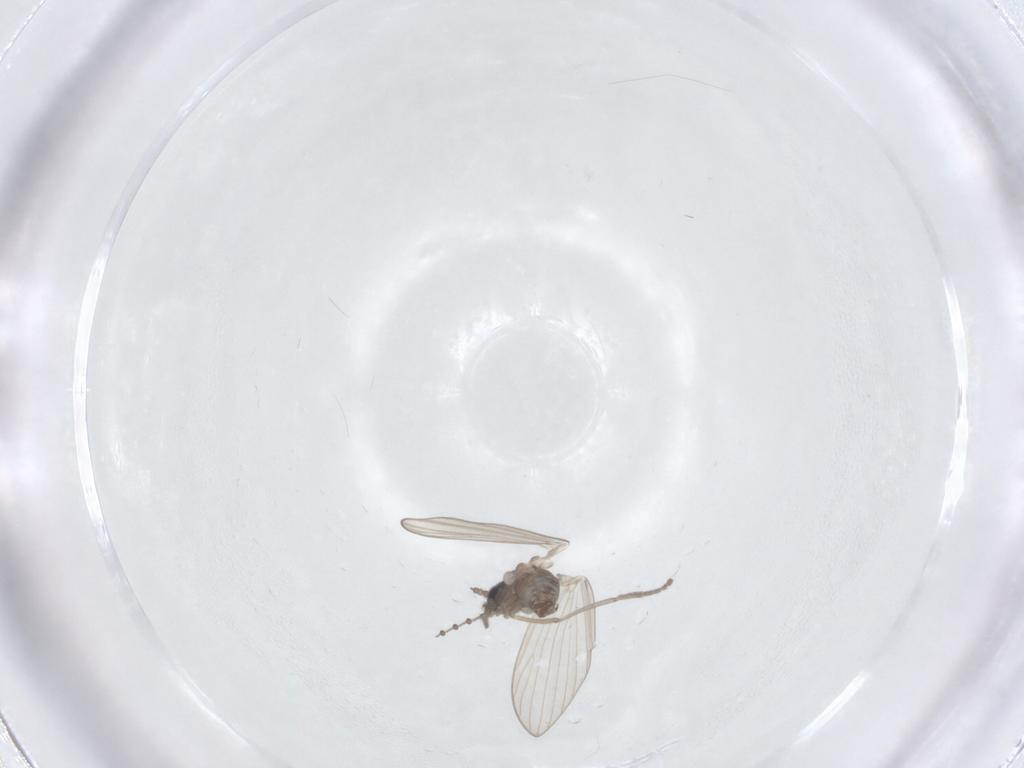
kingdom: Animalia
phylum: Arthropoda
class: Insecta
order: Diptera
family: Psychodidae
